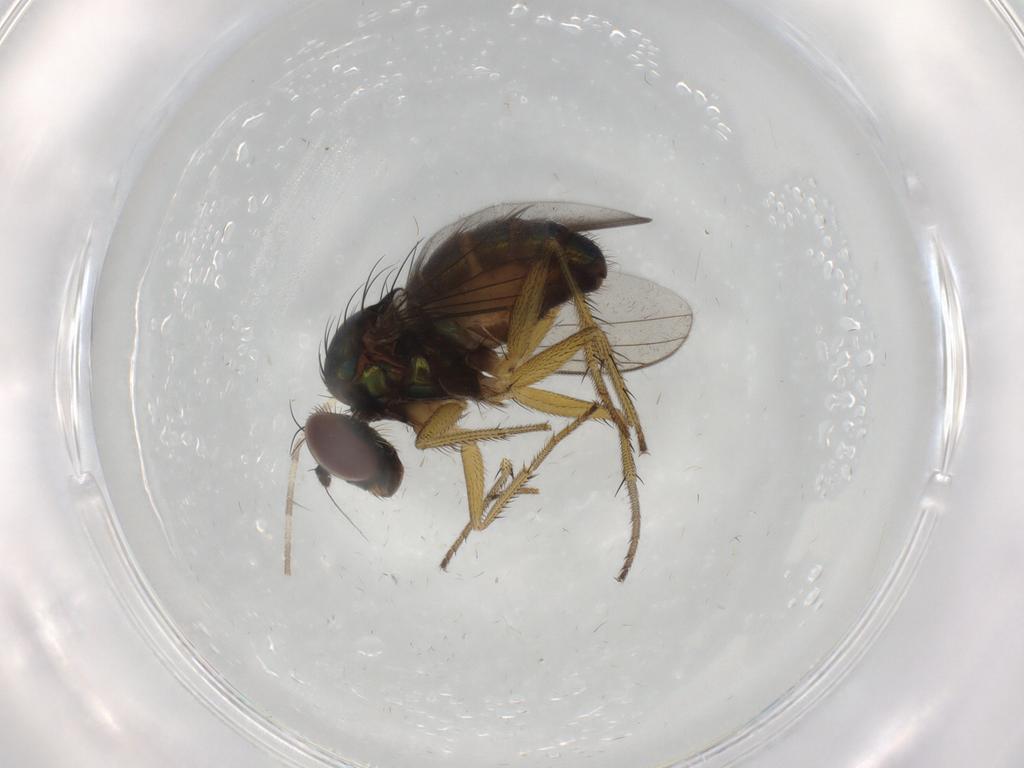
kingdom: Animalia
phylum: Arthropoda
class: Insecta
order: Diptera
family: Dolichopodidae
